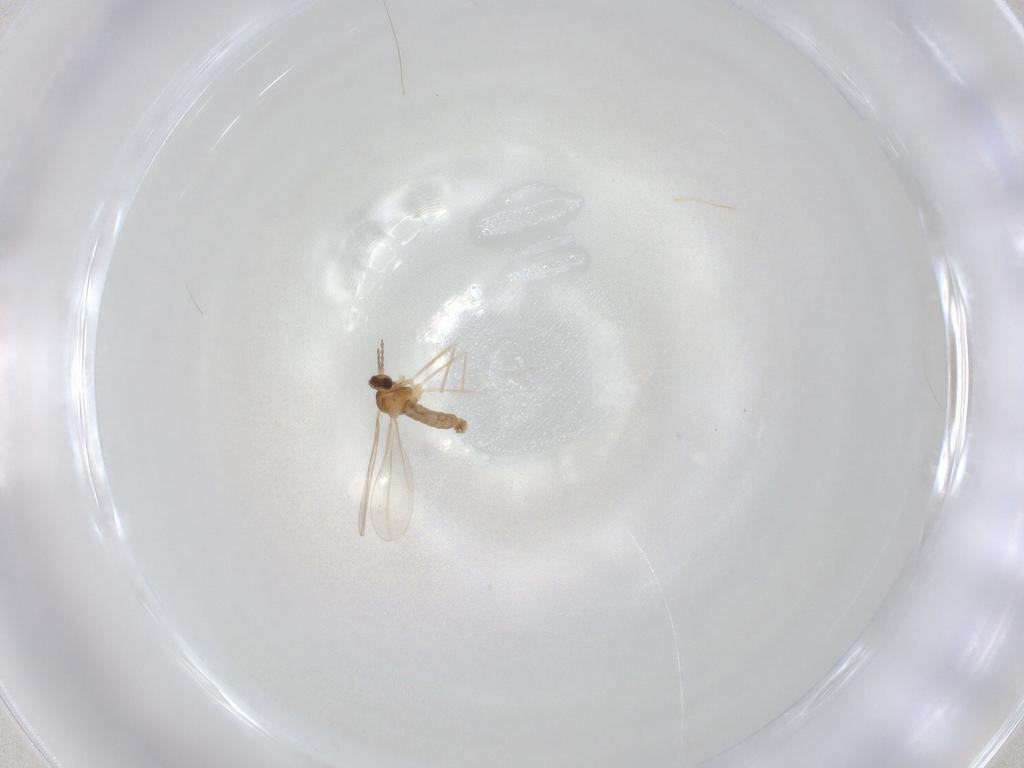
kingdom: Animalia
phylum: Arthropoda
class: Insecta
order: Diptera
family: Cecidomyiidae
